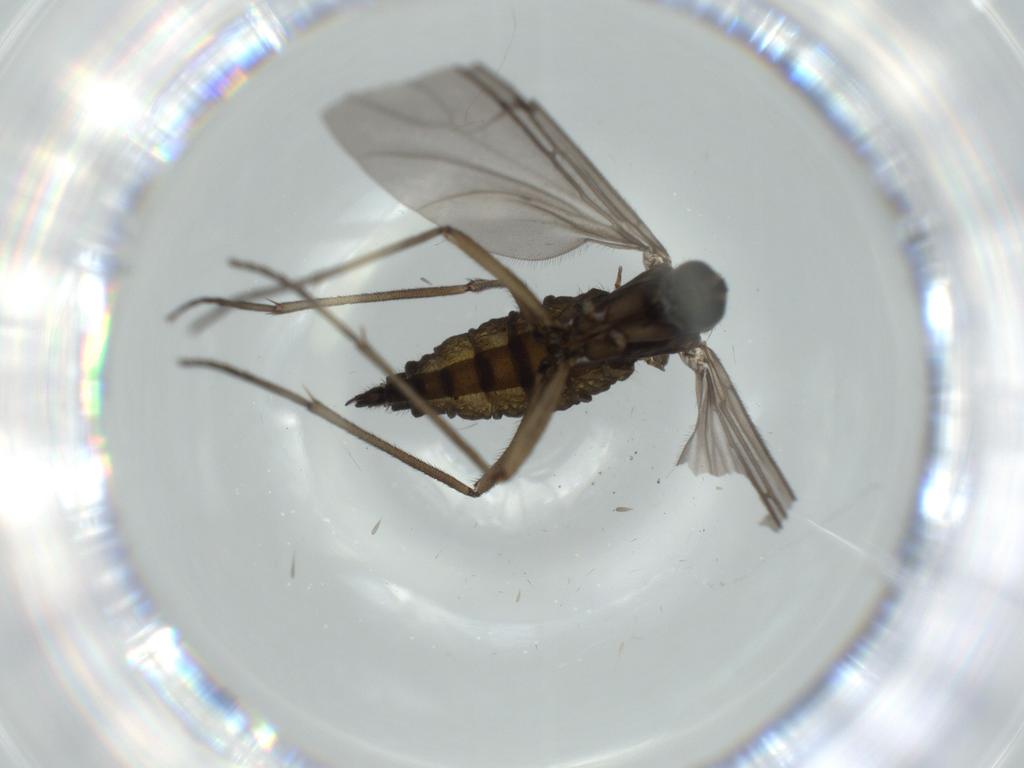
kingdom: Animalia
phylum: Arthropoda
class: Insecta
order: Diptera
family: Sciaridae
